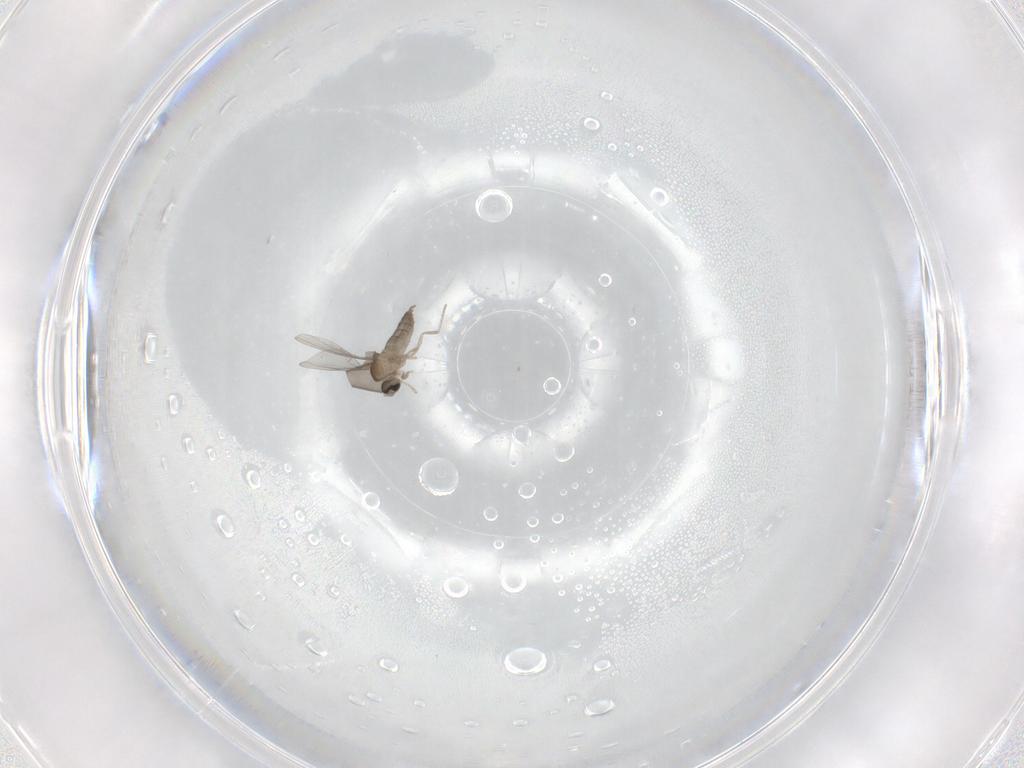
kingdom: Animalia
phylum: Arthropoda
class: Insecta
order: Diptera
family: Cecidomyiidae
